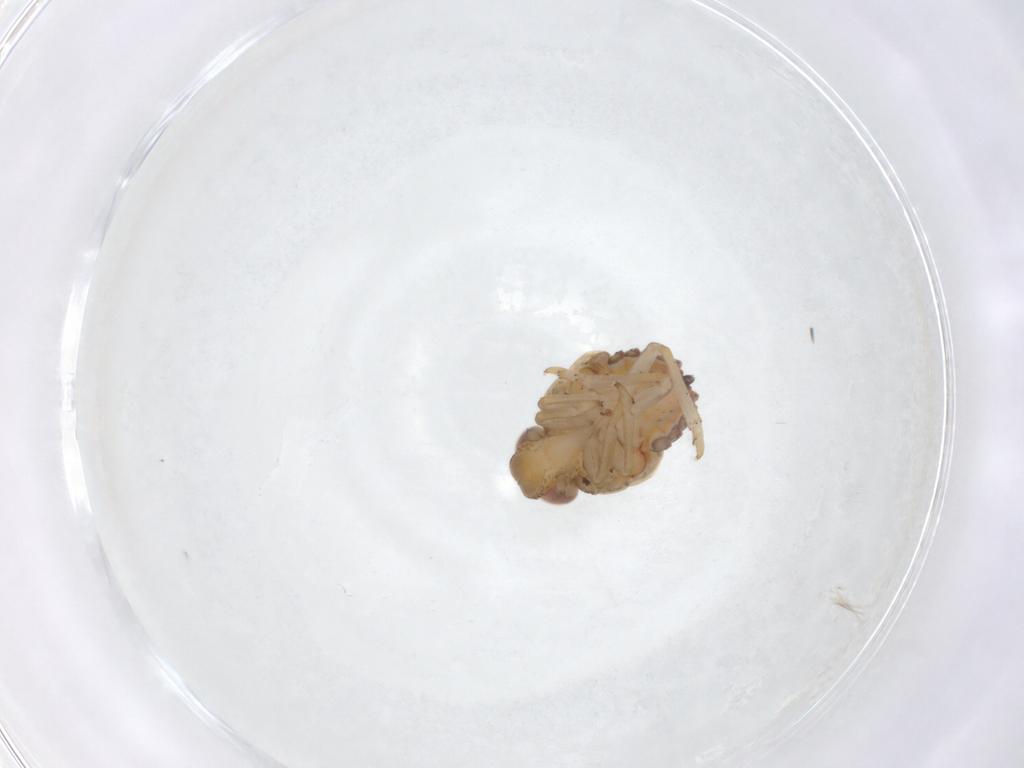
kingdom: Animalia
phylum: Arthropoda
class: Insecta
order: Hemiptera
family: Issidae
